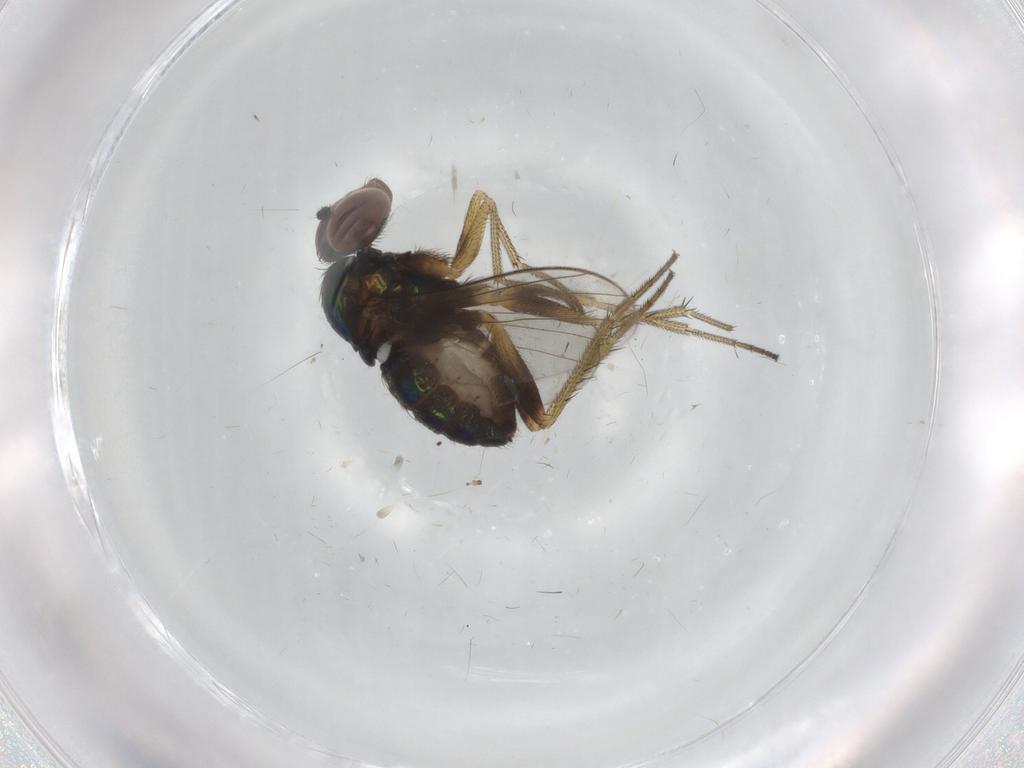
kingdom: Animalia
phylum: Arthropoda
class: Insecta
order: Diptera
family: Dolichopodidae
